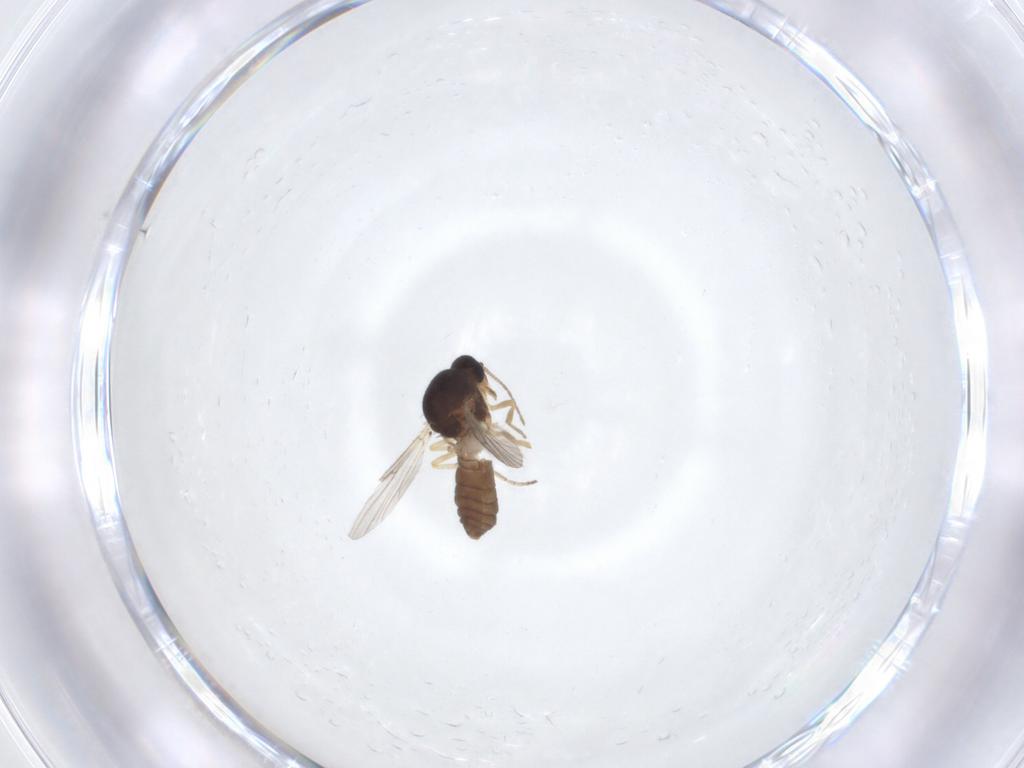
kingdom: Animalia
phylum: Arthropoda
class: Insecta
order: Diptera
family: Ceratopogonidae
